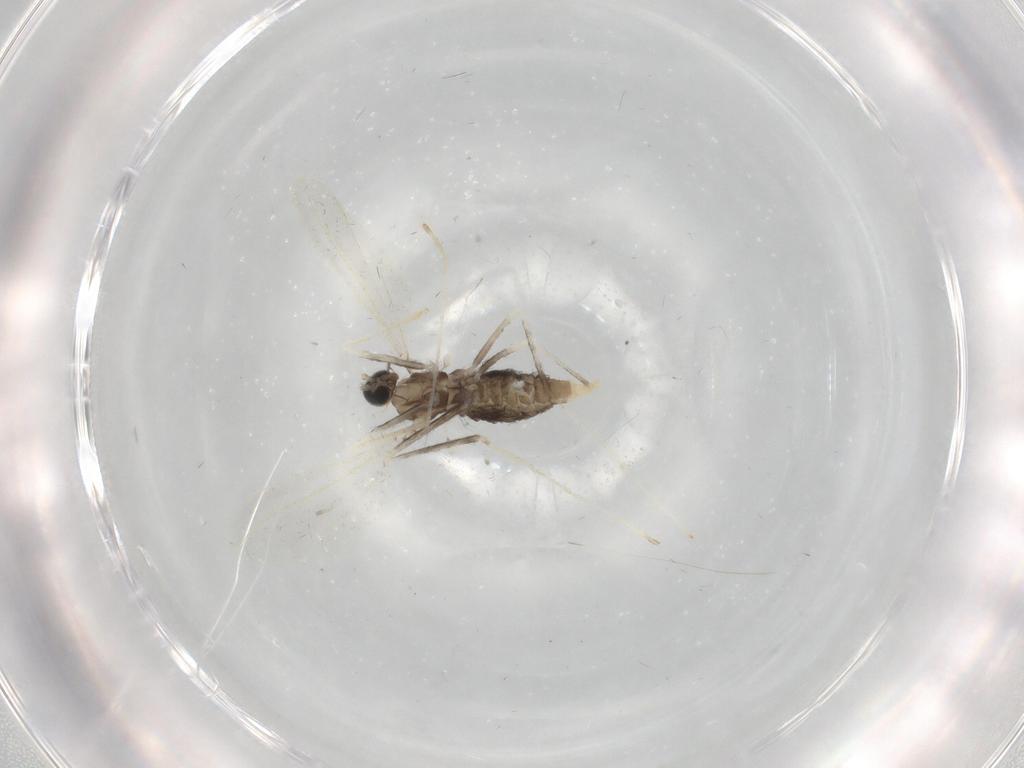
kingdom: Animalia
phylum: Arthropoda
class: Insecta
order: Diptera
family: Cecidomyiidae
